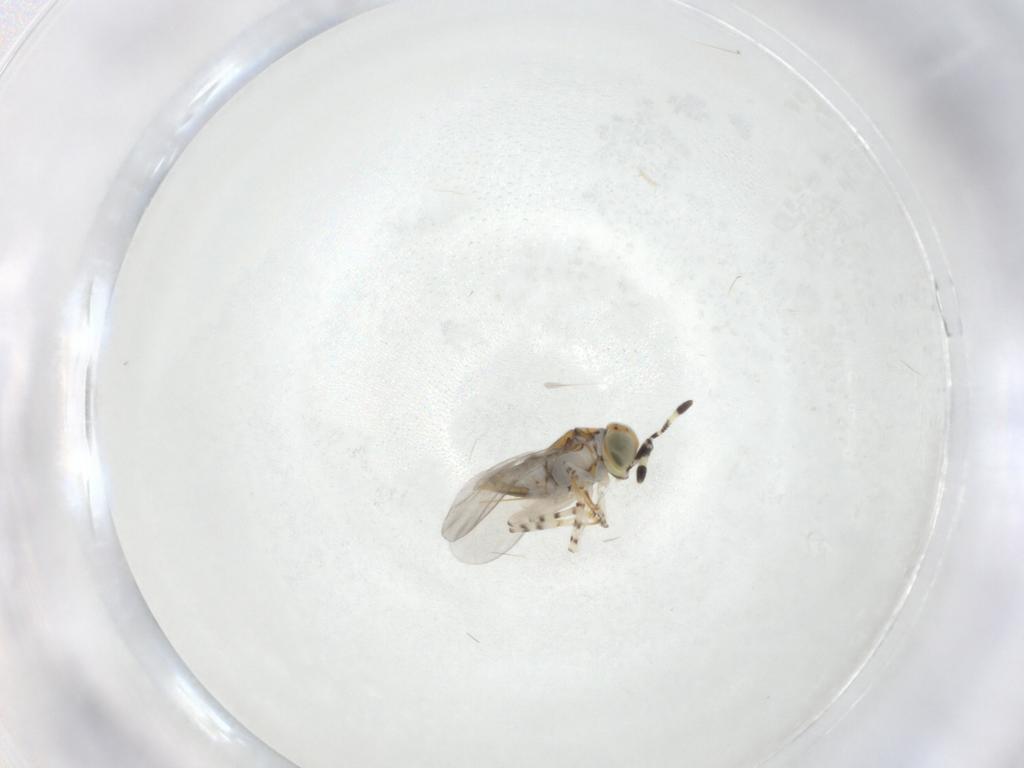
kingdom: Animalia
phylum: Arthropoda
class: Insecta
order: Hymenoptera
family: Encyrtidae
